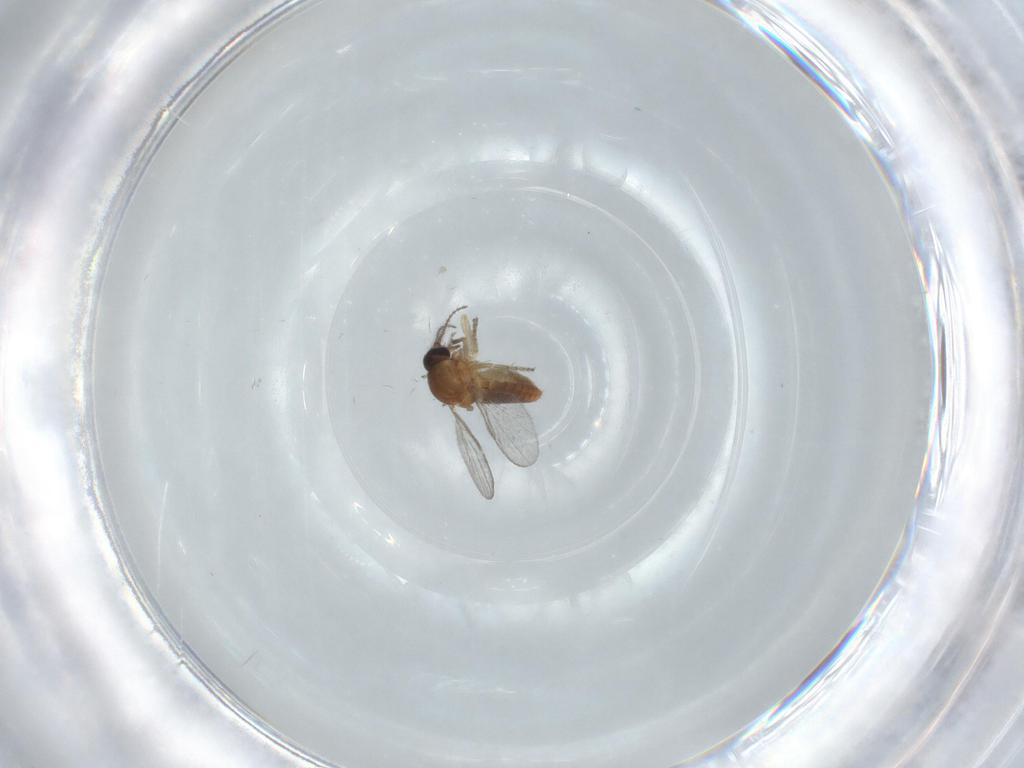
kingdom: Animalia
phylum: Arthropoda
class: Insecta
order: Diptera
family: Ceratopogonidae
